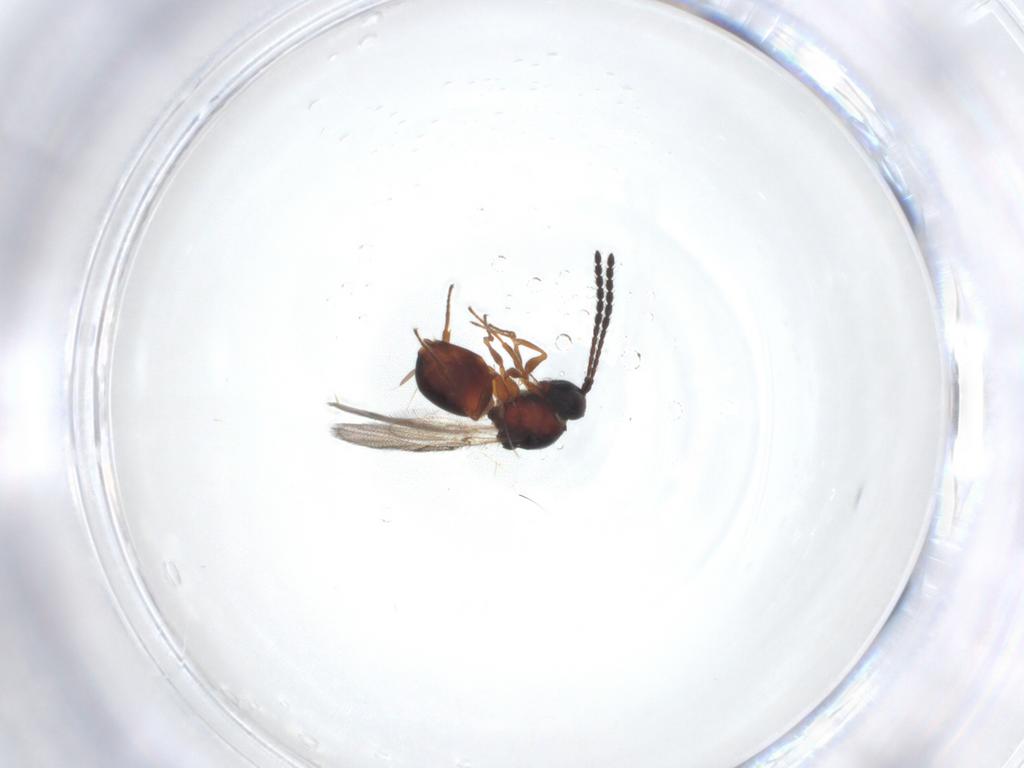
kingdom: Animalia
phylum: Arthropoda
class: Insecta
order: Hymenoptera
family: Figitidae
